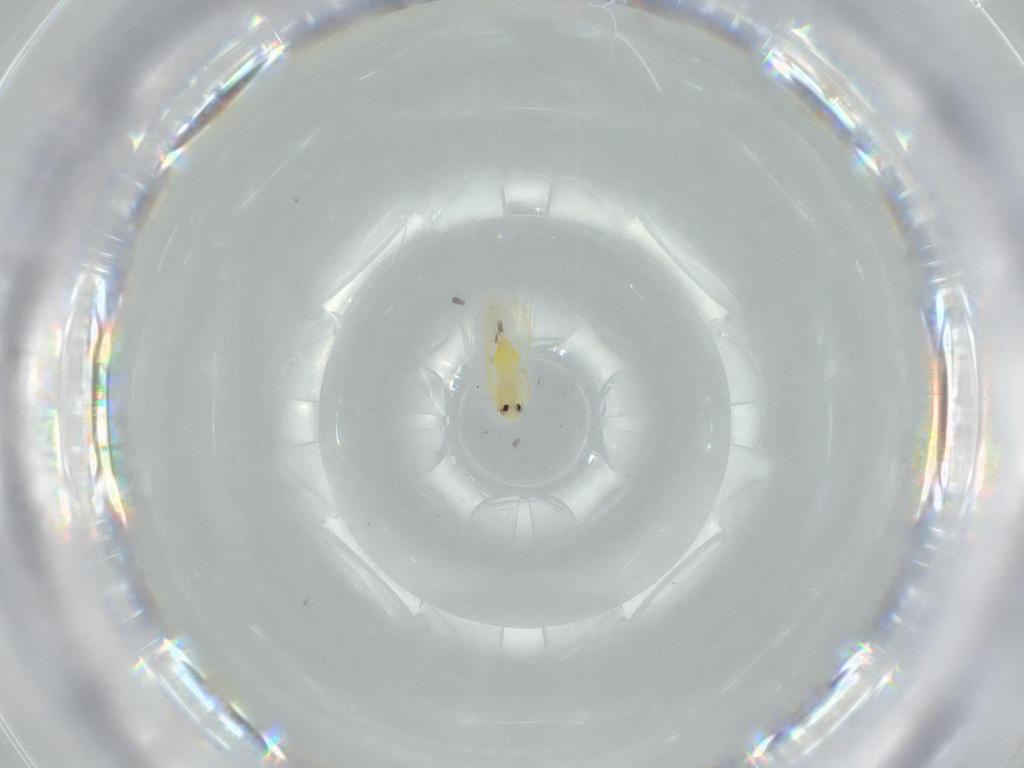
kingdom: Animalia
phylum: Arthropoda
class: Insecta
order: Hemiptera
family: Aleyrodidae
